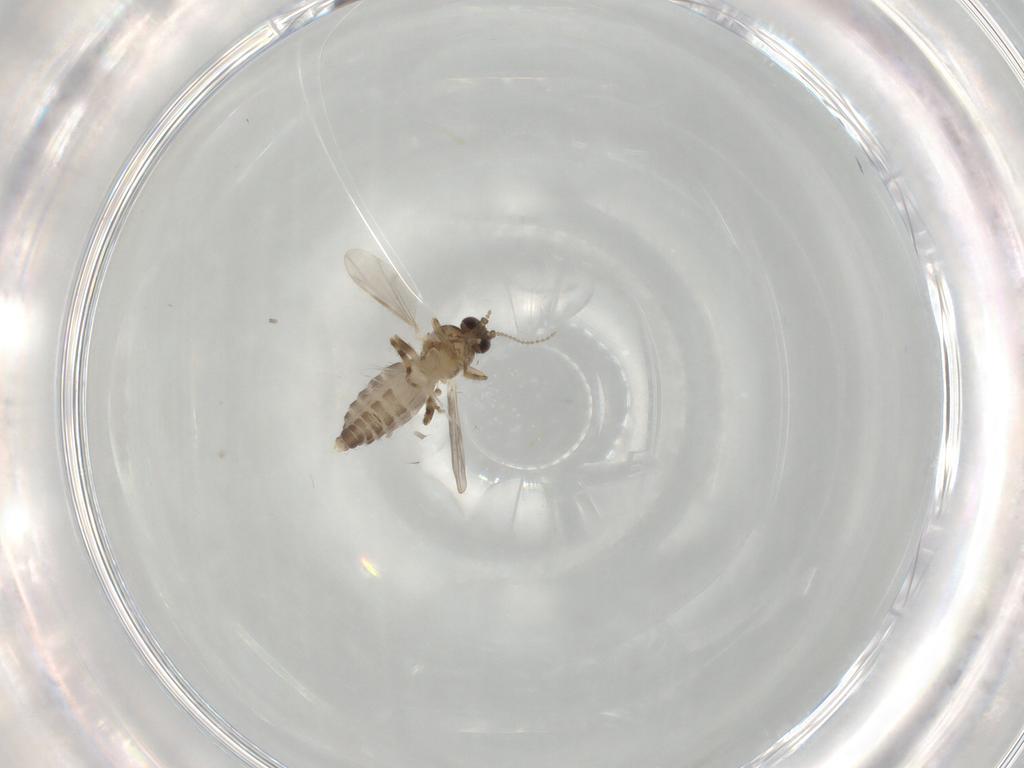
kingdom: Animalia
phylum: Arthropoda
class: Insecta
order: Diptera
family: Ceratopogonidae
